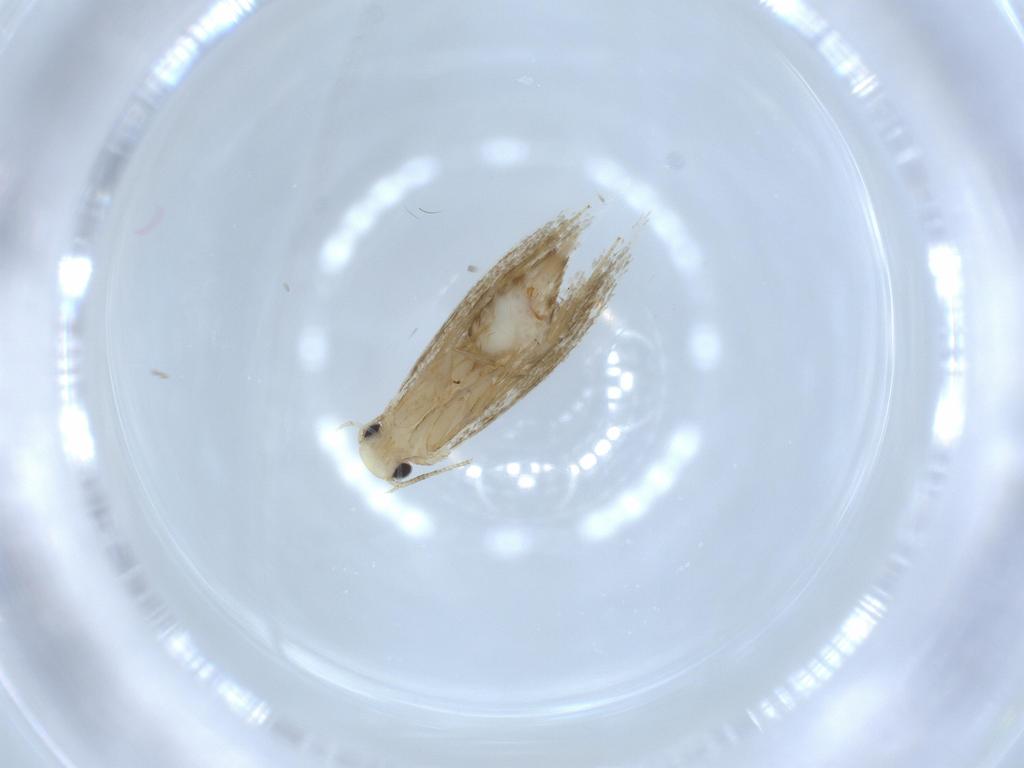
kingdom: Animalia
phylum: Arthropoda
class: Insecta
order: Lepidoptera
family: Tineidae
